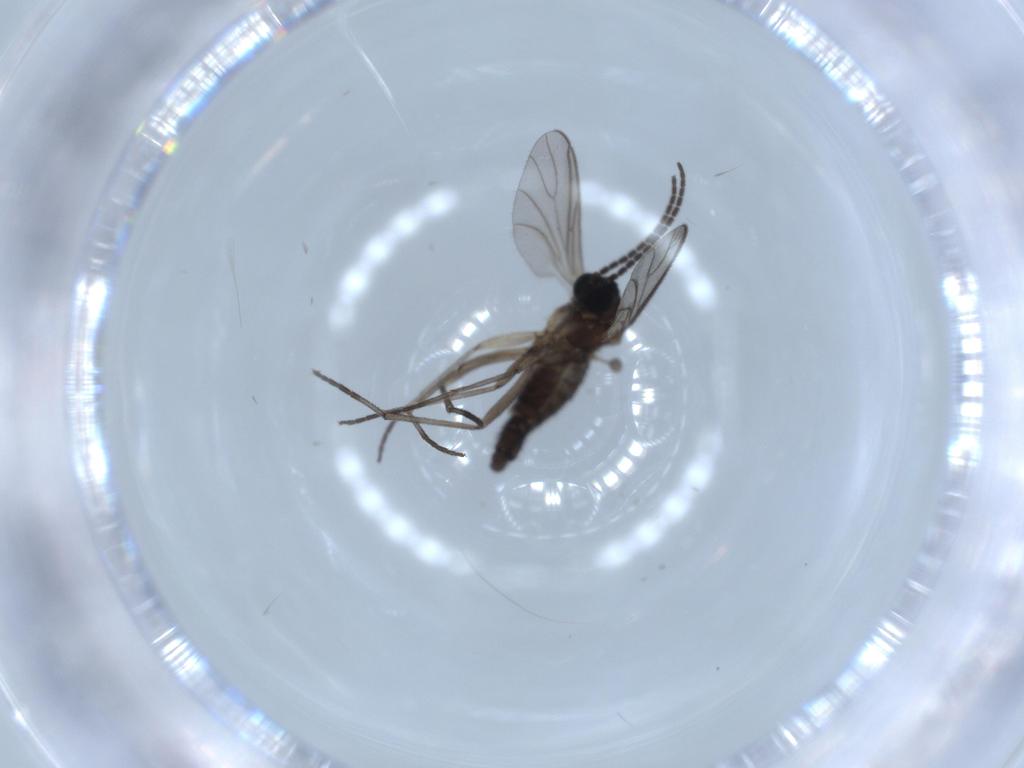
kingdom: Animalia
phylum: Arthropoda
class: Insecta
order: Diptera
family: Sciaridae
